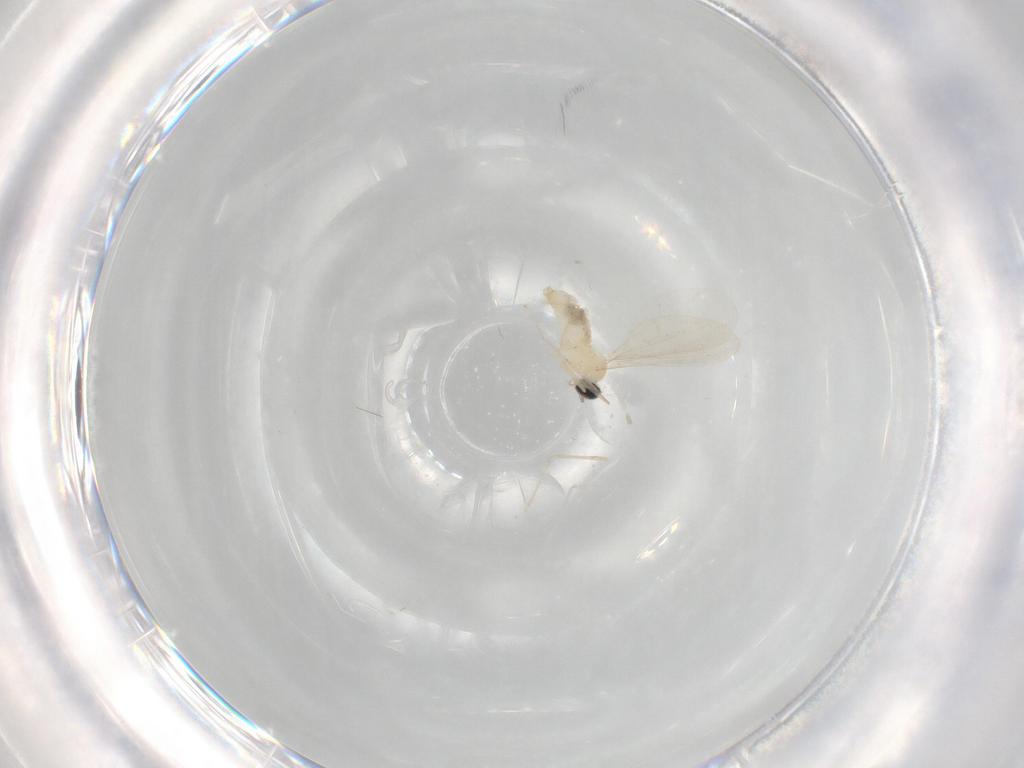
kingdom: Animalia
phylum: Arthropoda
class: Insecta
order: Diptera
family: Cecidomyiidae
